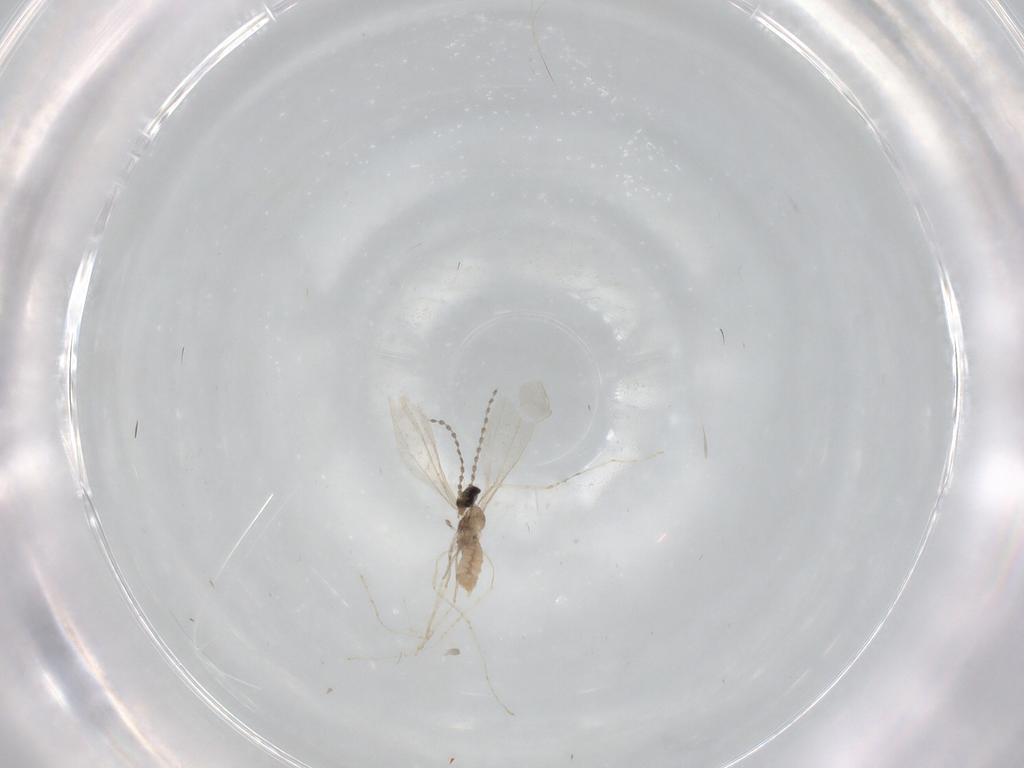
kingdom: Animalia
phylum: Arthropoda
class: Insecta
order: Diptera
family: Cecidomyiidae
